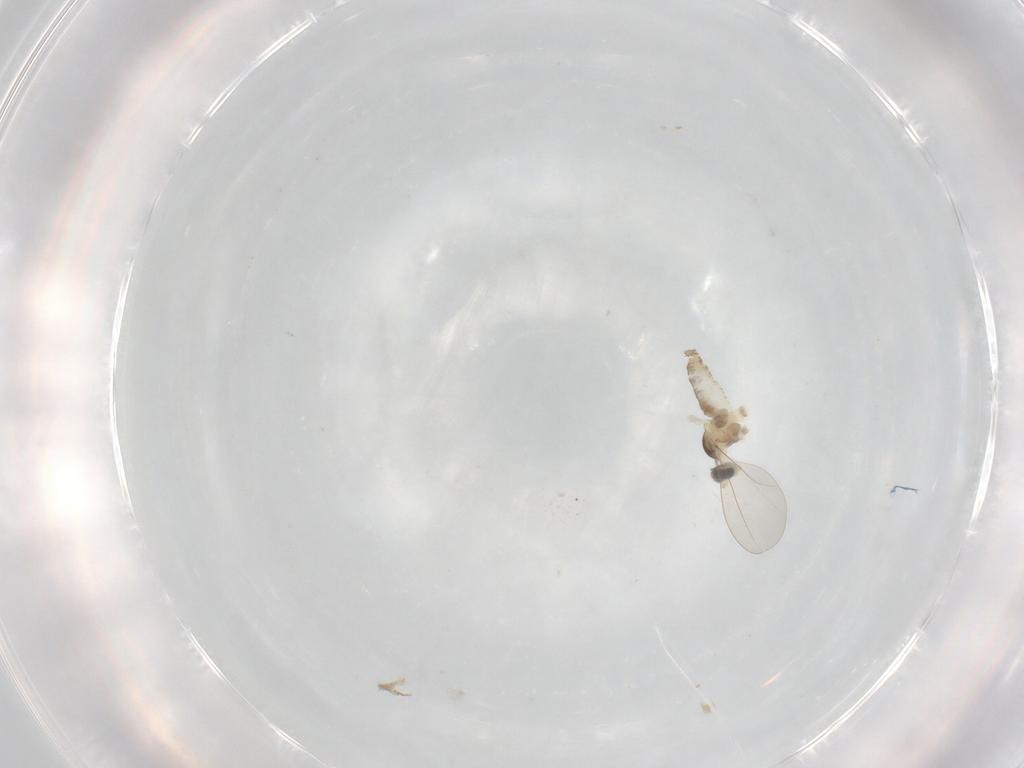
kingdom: Animalia
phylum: Arthropoda
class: Insecta
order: Diptera
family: Cecidomyiidae
